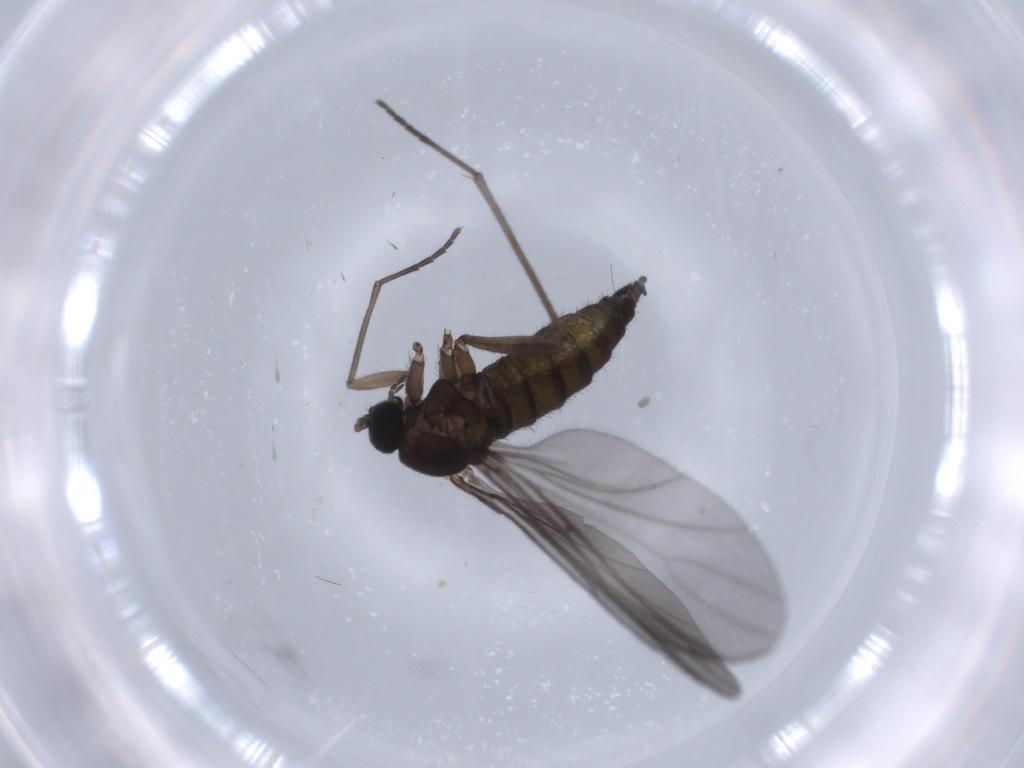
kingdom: Animalia
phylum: Arthropoda
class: Insecta
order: Diptera
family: Sciaridae
